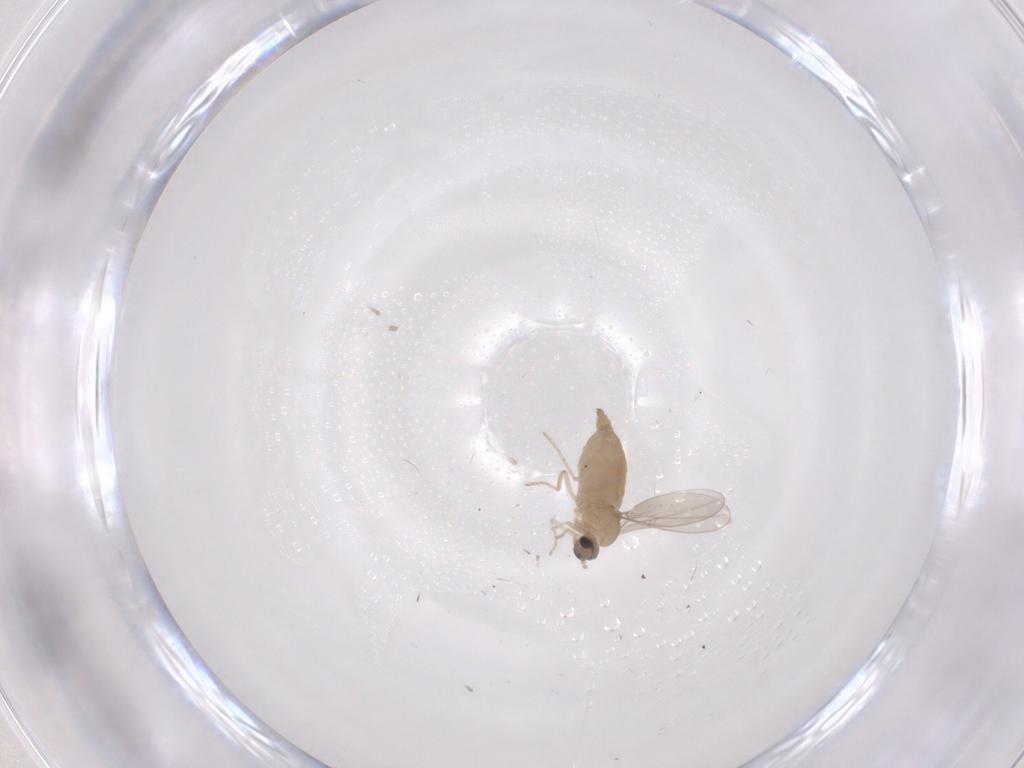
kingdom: Animalia
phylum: Arthropoda
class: Insecta
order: Diptera
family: Cecidomyiidae
